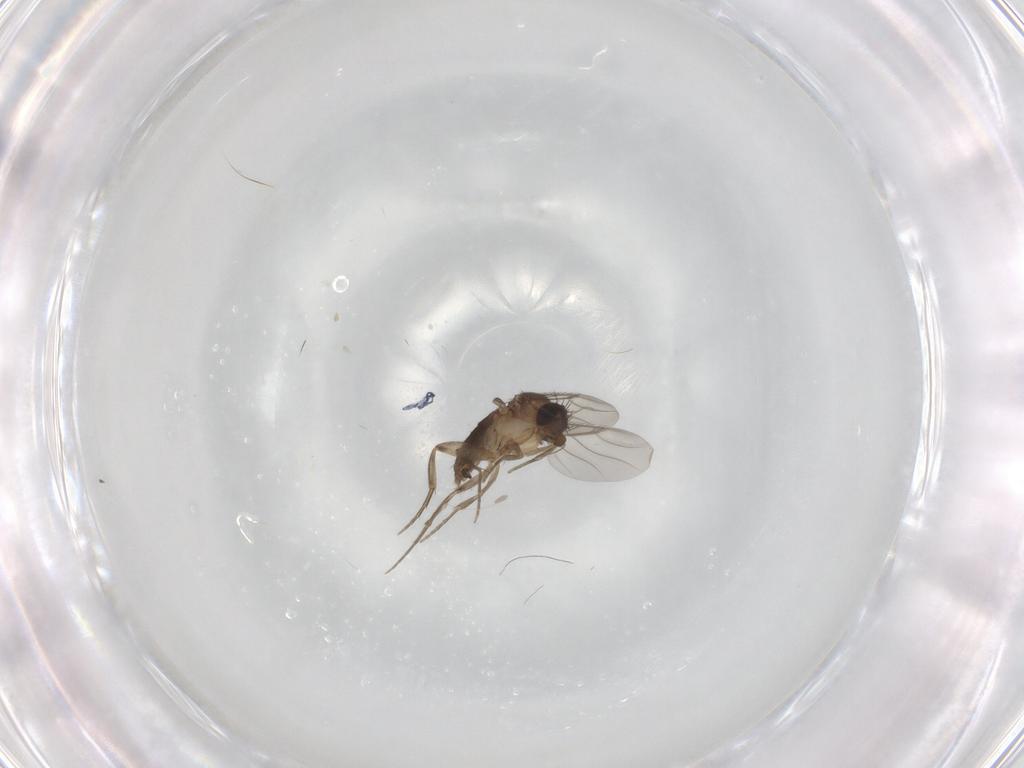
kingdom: Animalia
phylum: Arthropoda
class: Insecta
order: Diptera
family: Phoridae
